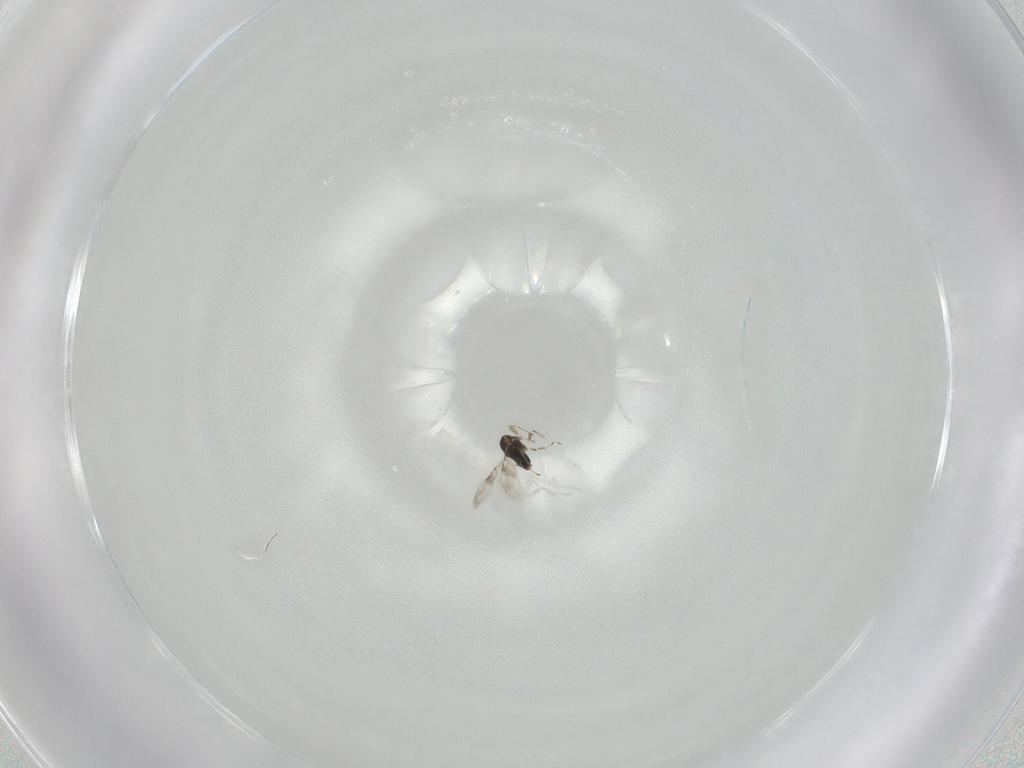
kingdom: Animalia
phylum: Arthropoda
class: Insecta
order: Hymenoptera
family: Azotidae
